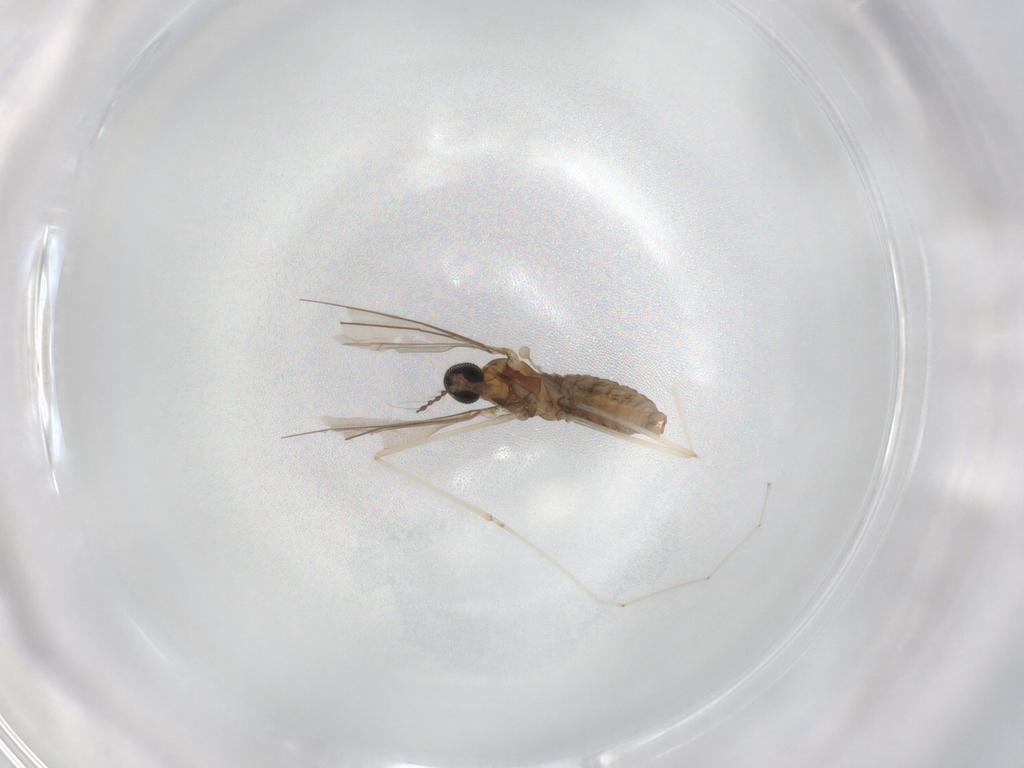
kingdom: Animalia
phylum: Arthropoda
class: Insecta
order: Diptera
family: Cecidomyiidae
